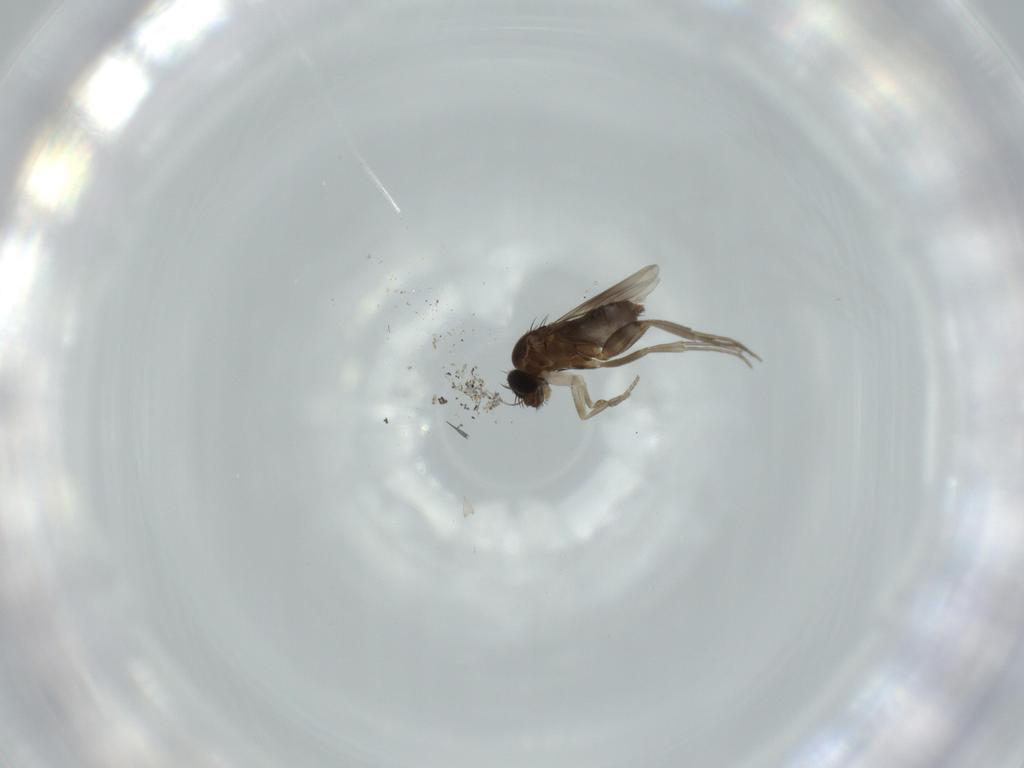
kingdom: Animalia
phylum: Arthropoda
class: Insecta
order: Diptera
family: Phoridae
